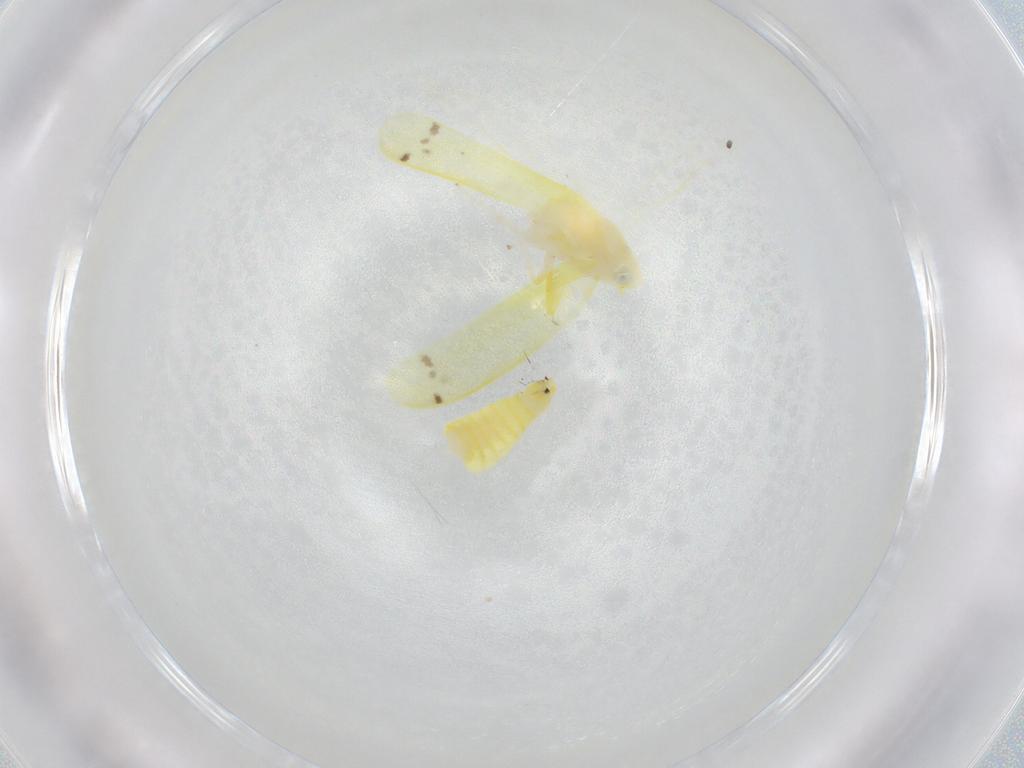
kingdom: Animalia
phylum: Arthropoda
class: Insecta
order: Hemiptera
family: Cicadellidae
